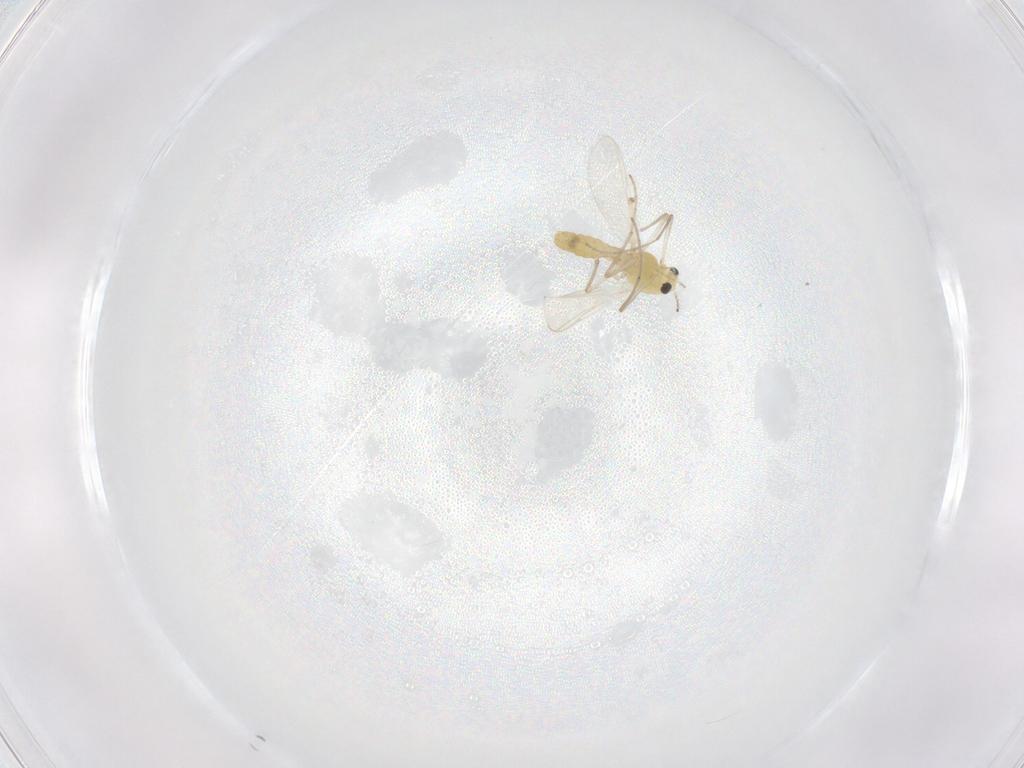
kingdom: Animalia
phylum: Arthropoda
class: Insecta
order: Diptera
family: Chironomidae
